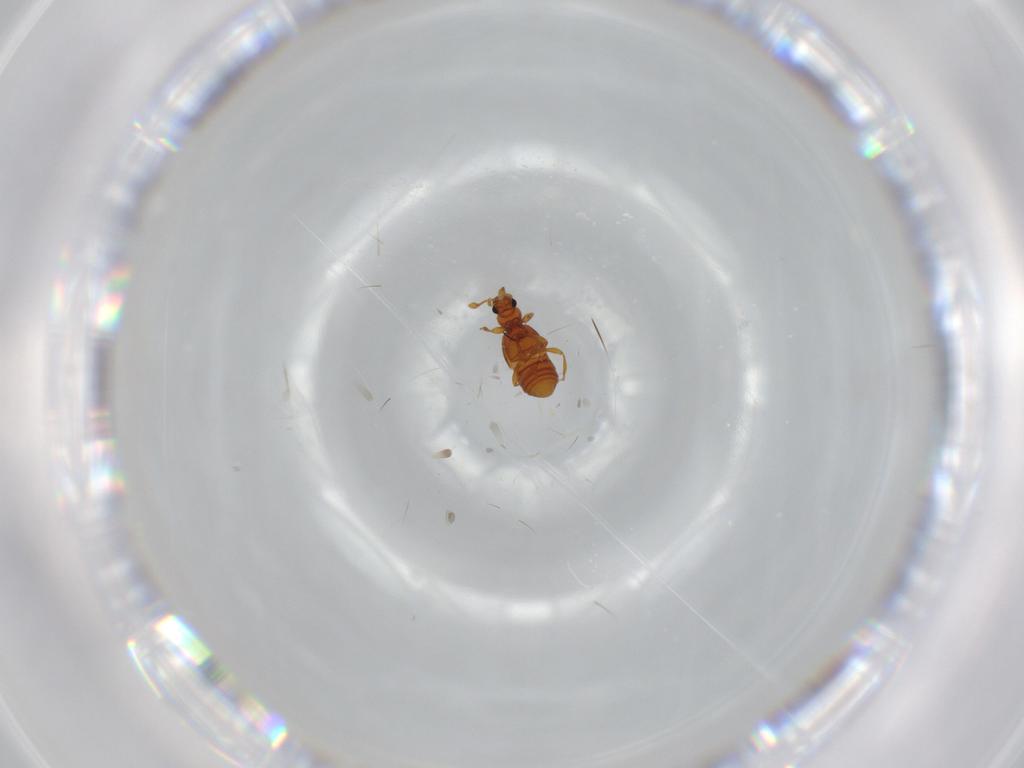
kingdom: Animalia
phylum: Arthropoda
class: Insecta
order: Coleoptera
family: Staphylinidae
